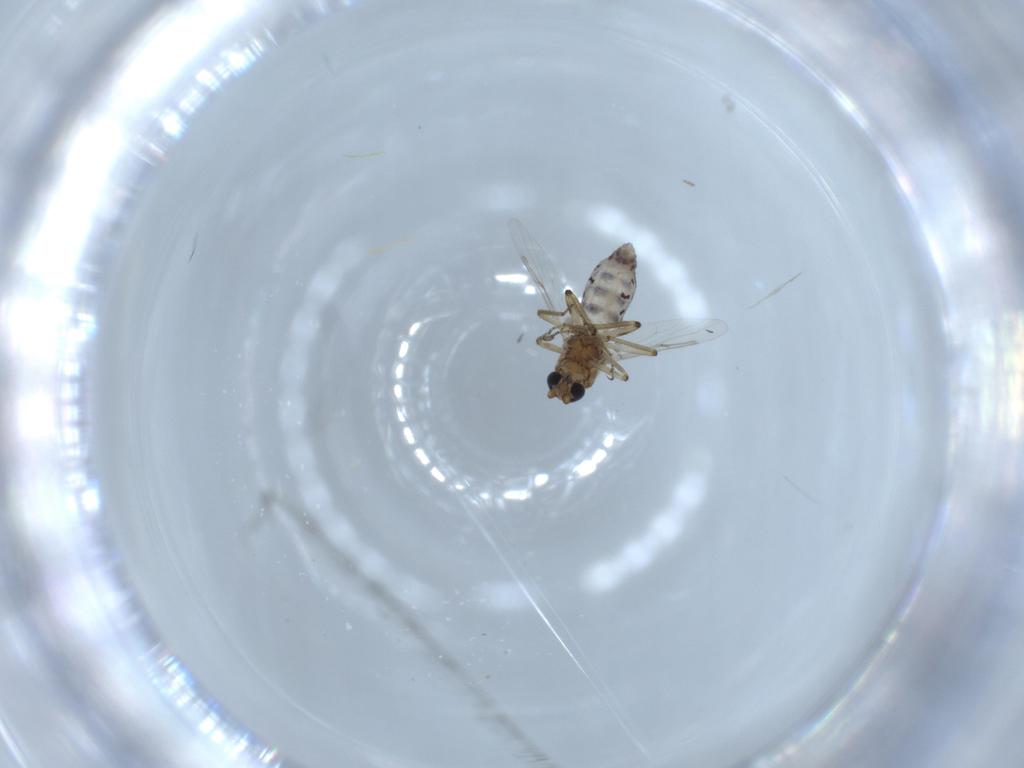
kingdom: Animalia
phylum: Arthropoda
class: Insecta
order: Diptera
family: Ceratopogonidae
